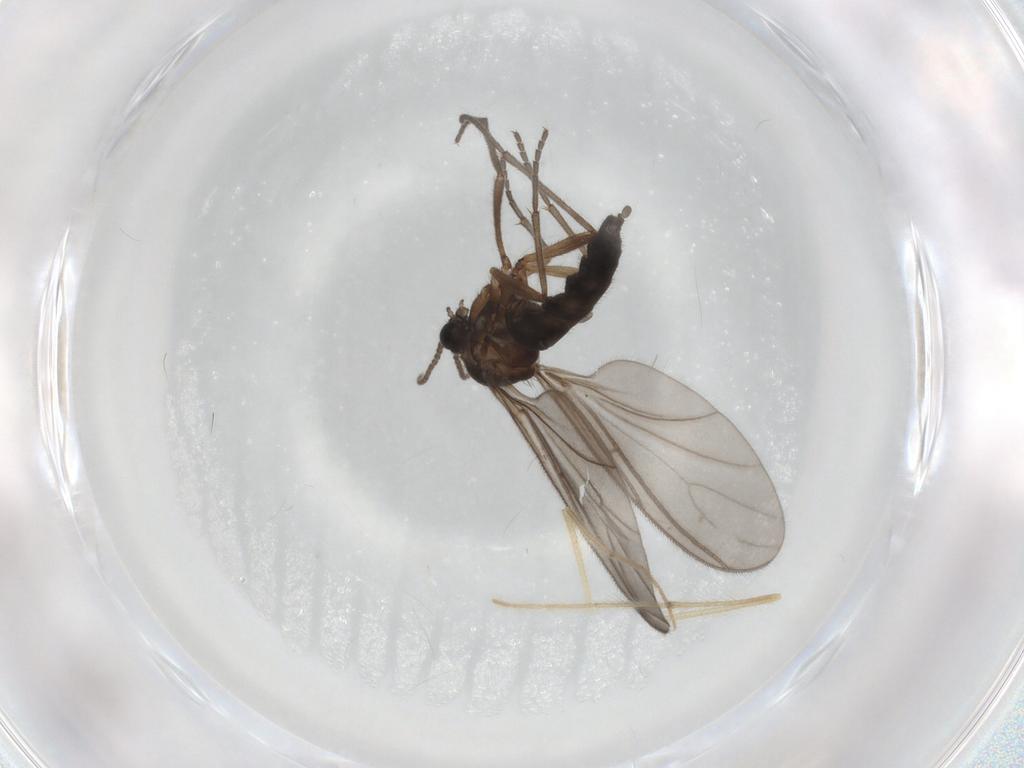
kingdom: Animalia
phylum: Arthropoda
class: Insecta
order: Diptera
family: Sciaridae
